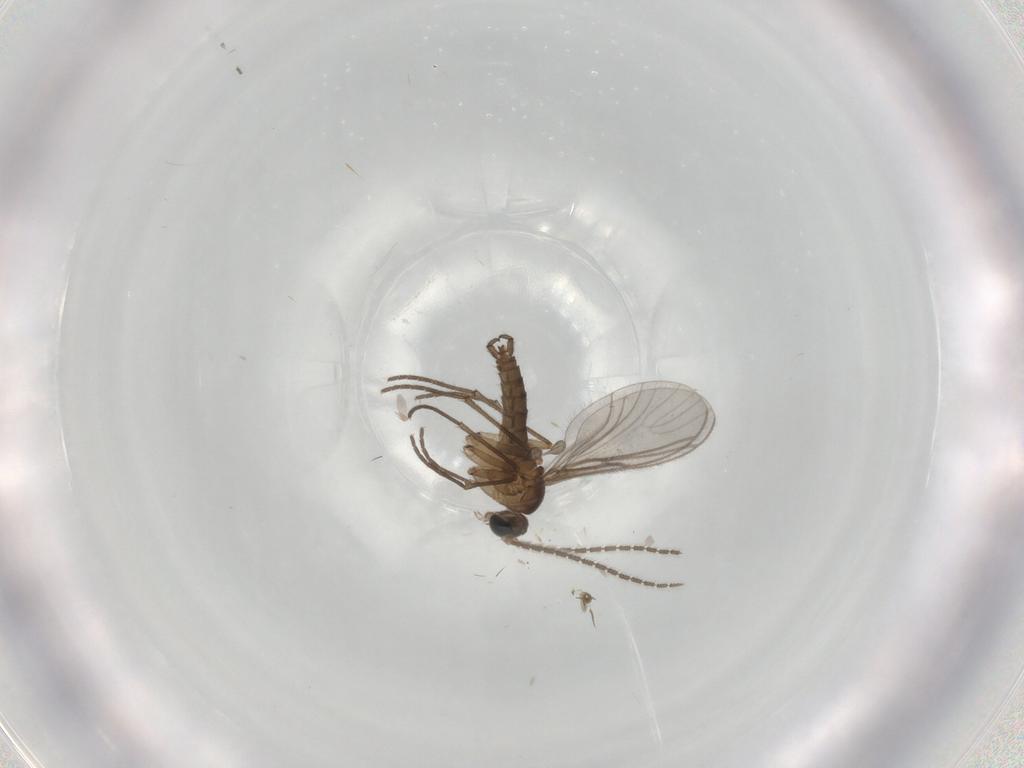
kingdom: Animalia
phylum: Arthropoda
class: Insecta
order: Diptera
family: Cecidomyiidae
